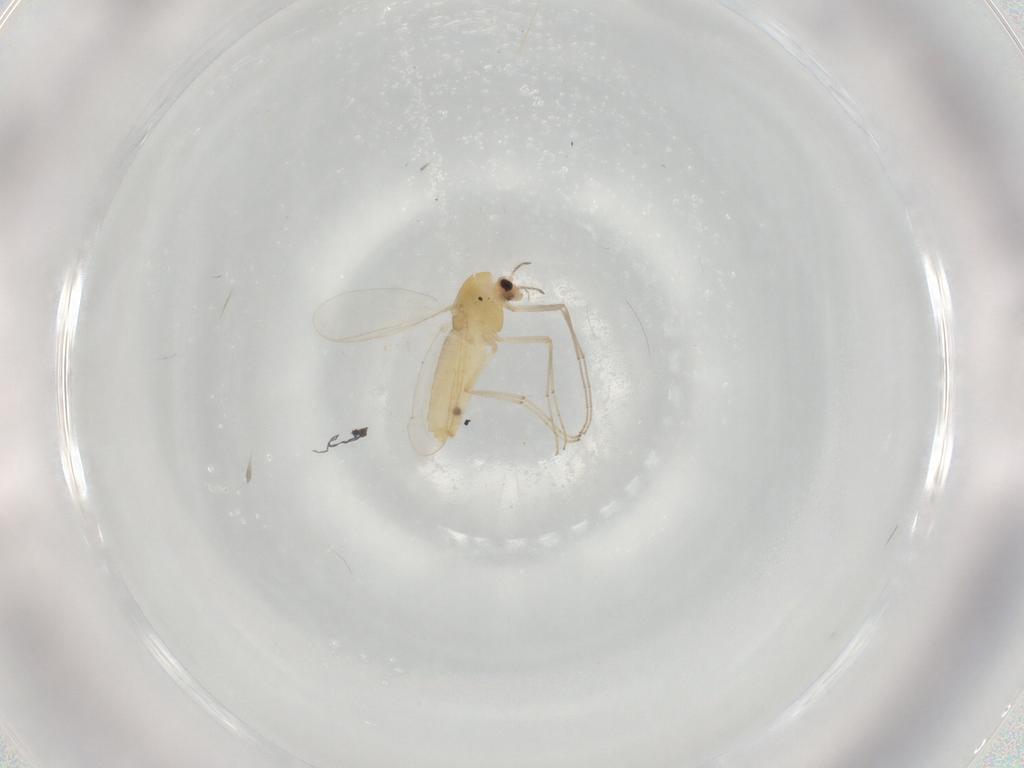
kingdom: Animalia
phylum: Arthropoda
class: Insecta
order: Diptera
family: Chironomidae
